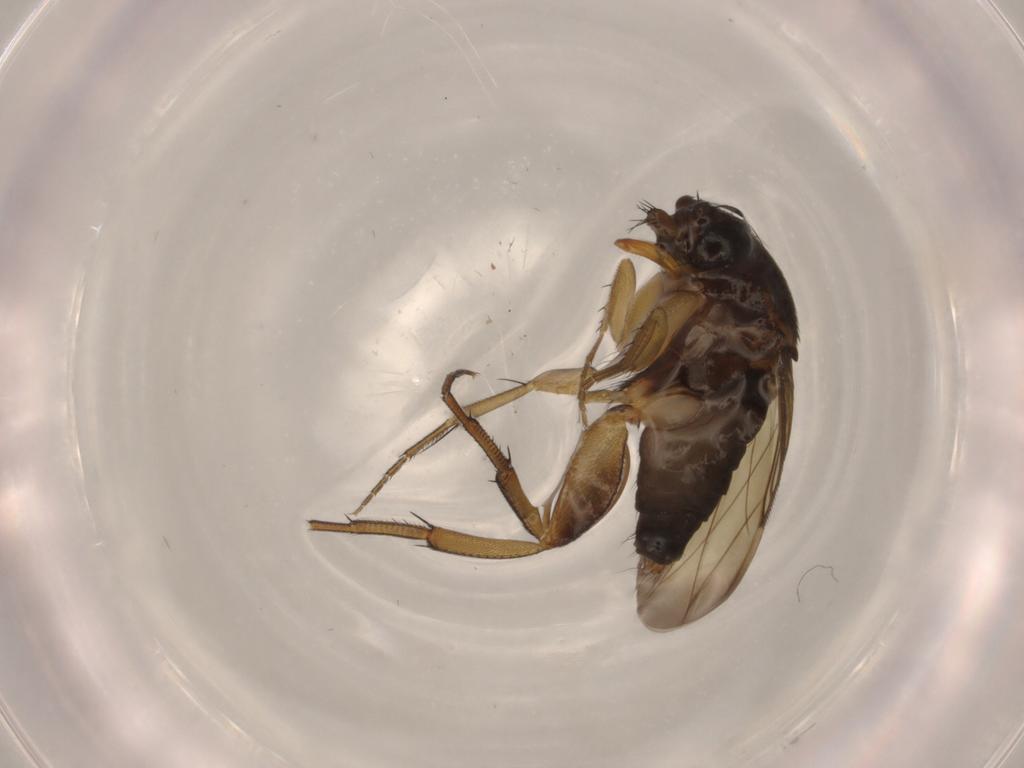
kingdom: Animalia
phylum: Arthropoda
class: Insecta
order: Diptera
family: Phoridae
